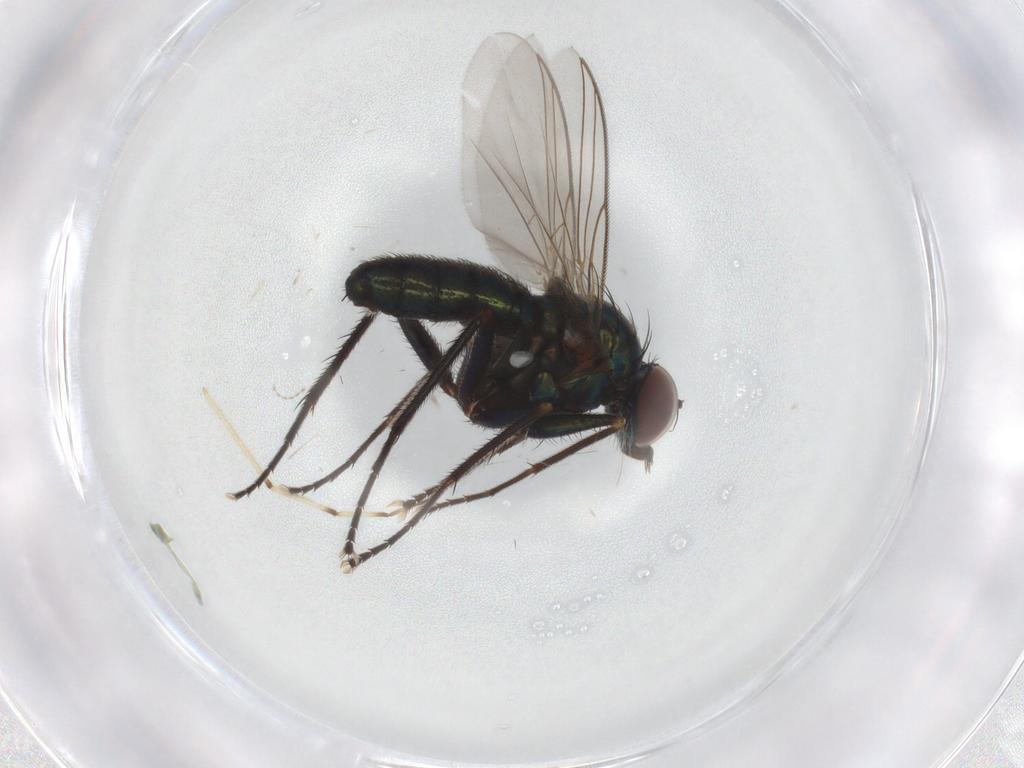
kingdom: Animalia
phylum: Arthropoda
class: Insecta
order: Diptera
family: Dolichopodidae
